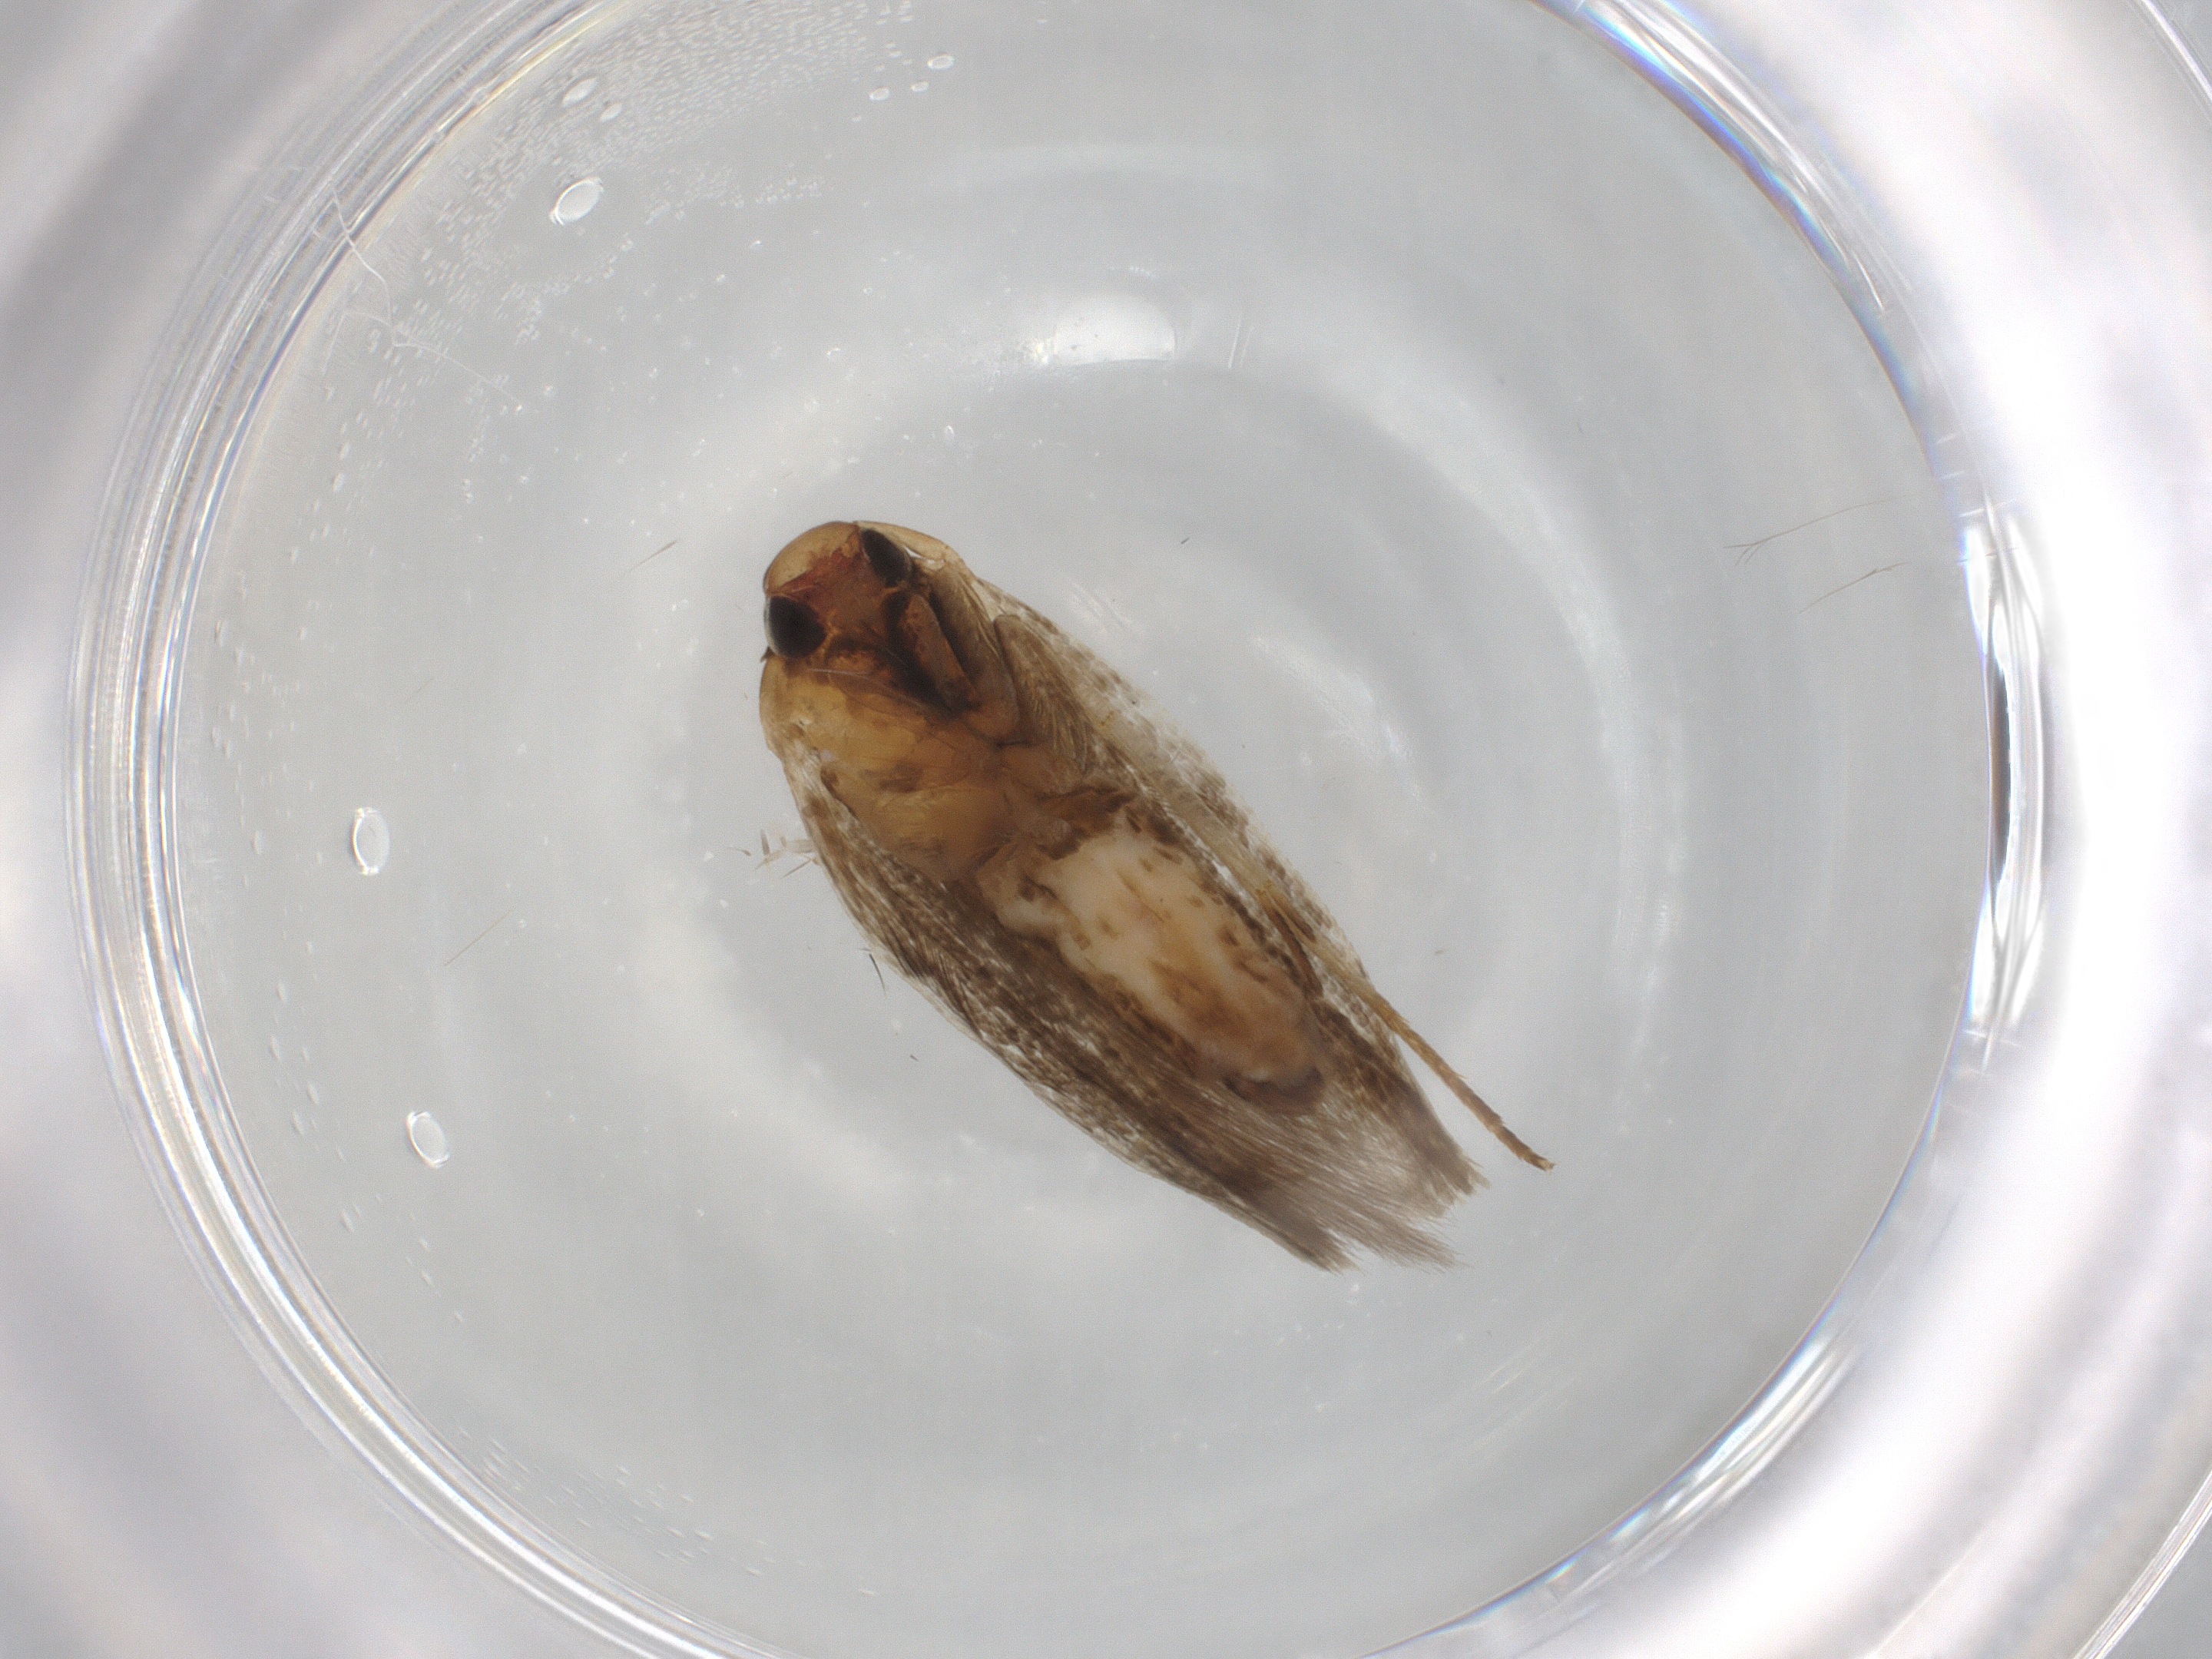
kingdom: Animalia
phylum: Arthropoda
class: Insecta
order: Lepidoptera
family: Cosmopterigidae
